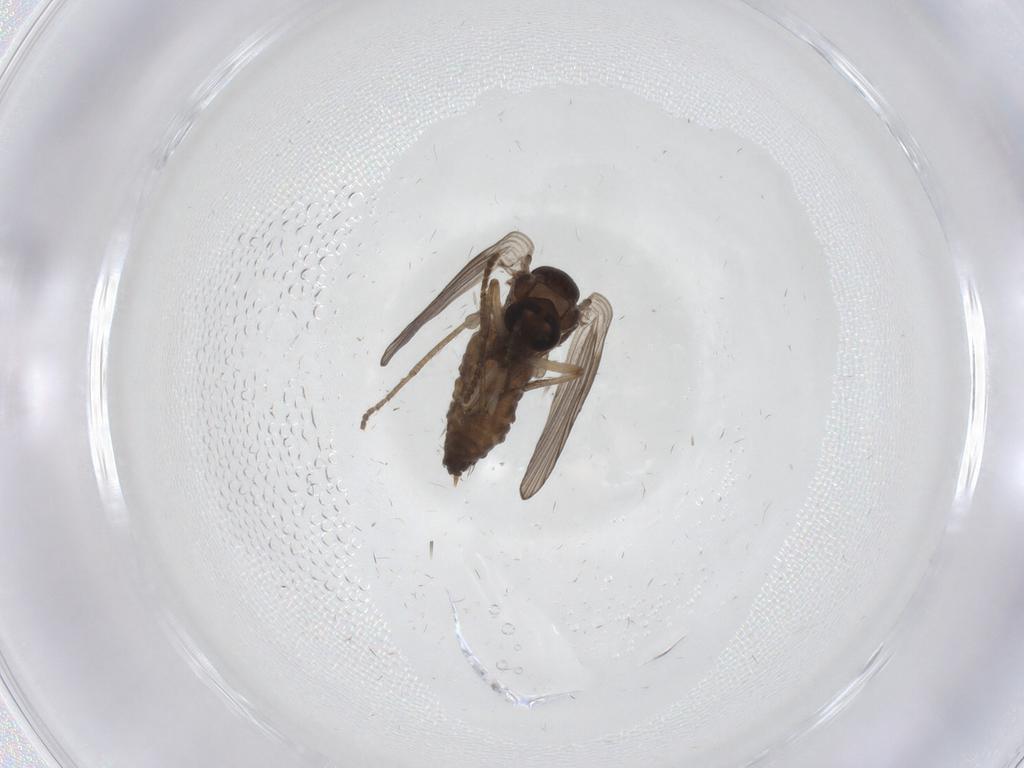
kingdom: Animalia
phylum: Arthropoda
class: Insecta
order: Diptera
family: Psychodidae
